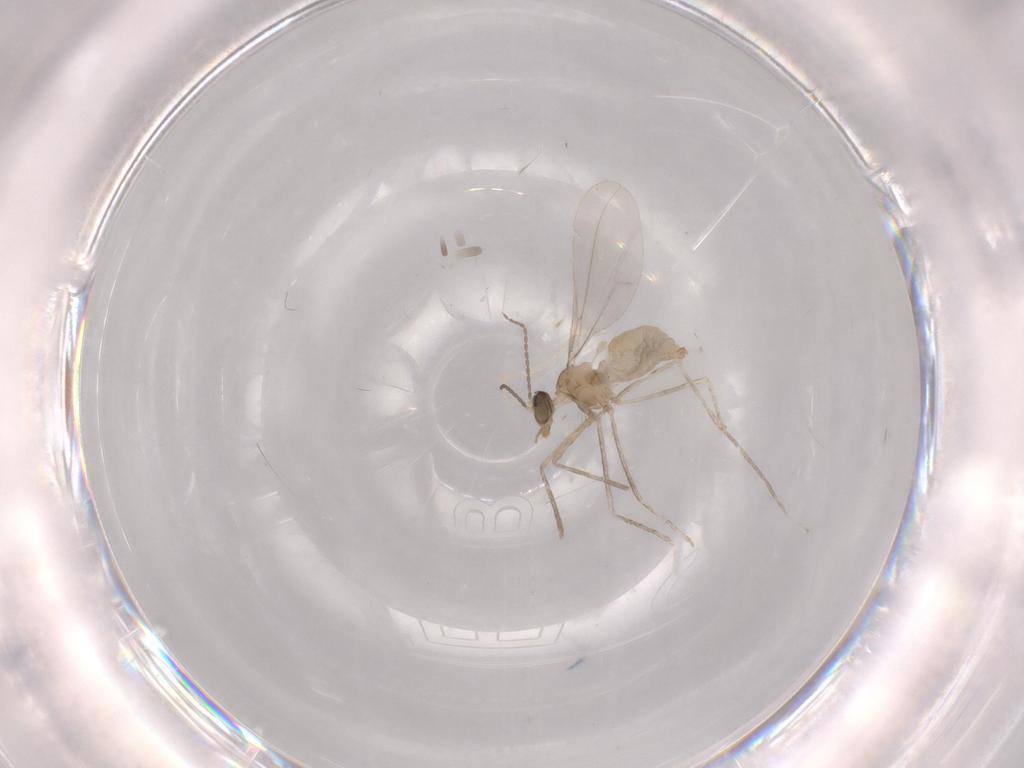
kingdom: Animalia
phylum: Arthropoda
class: Insecta
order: Diptera
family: Cecidomyiidae
